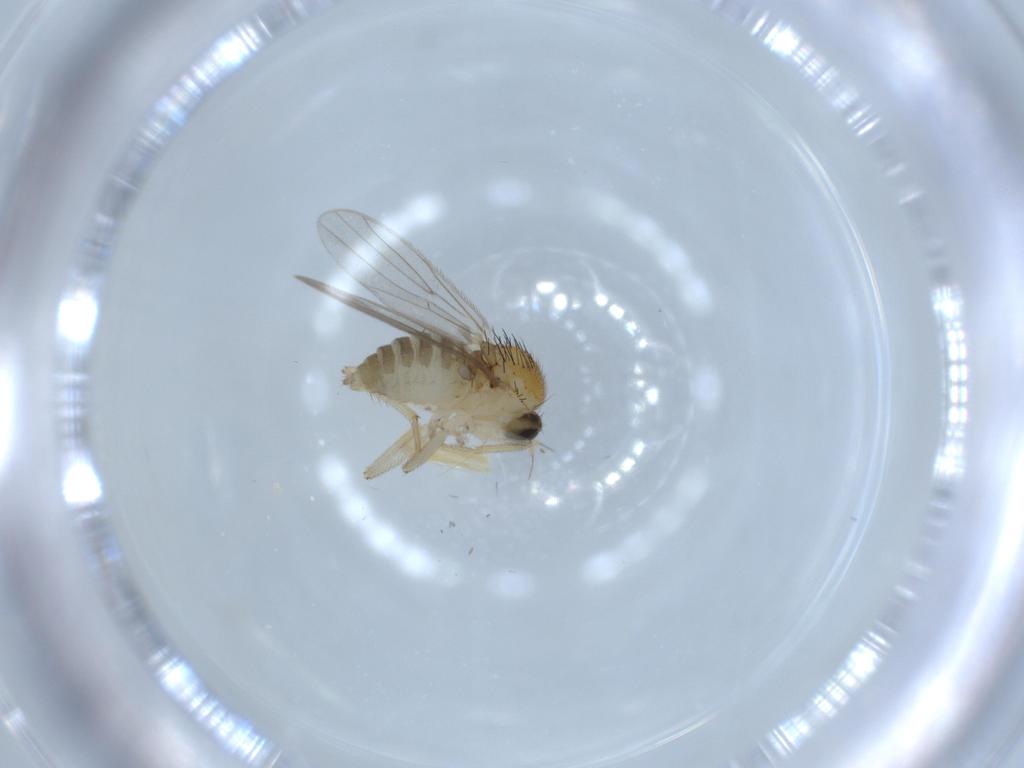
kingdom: Animalia
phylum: Arthropoda
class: Insecta
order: Diptera
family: Hybotidae
